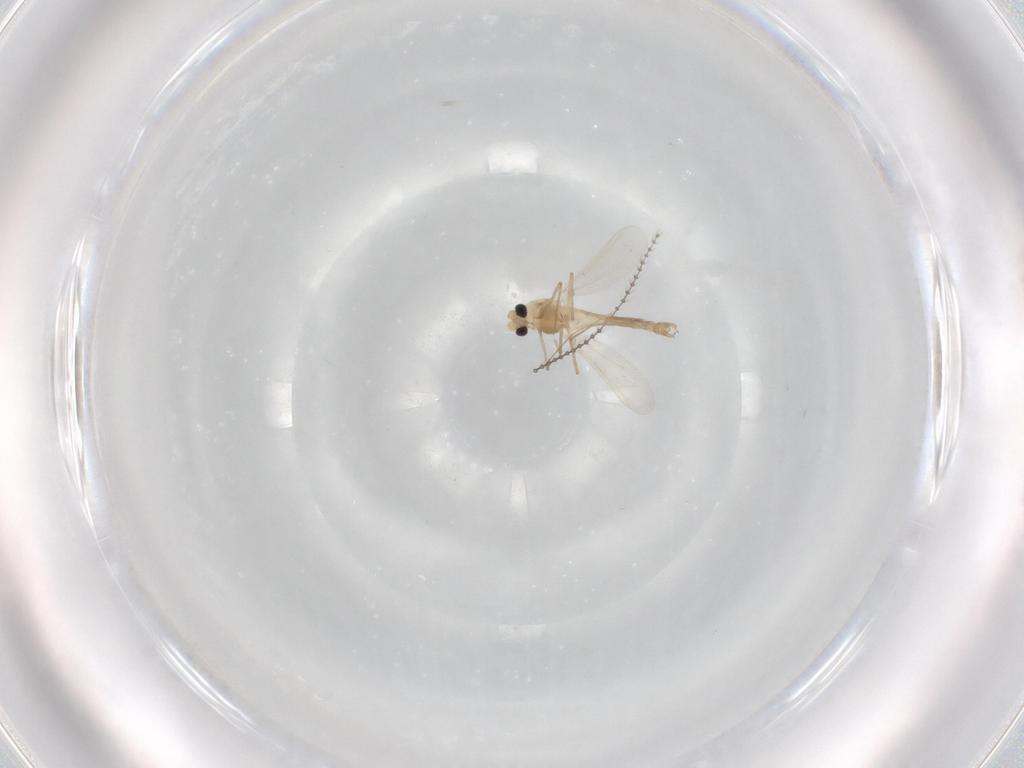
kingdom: Animalia
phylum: Arthropoda
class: Insecta
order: Diptera
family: Chironomidae
